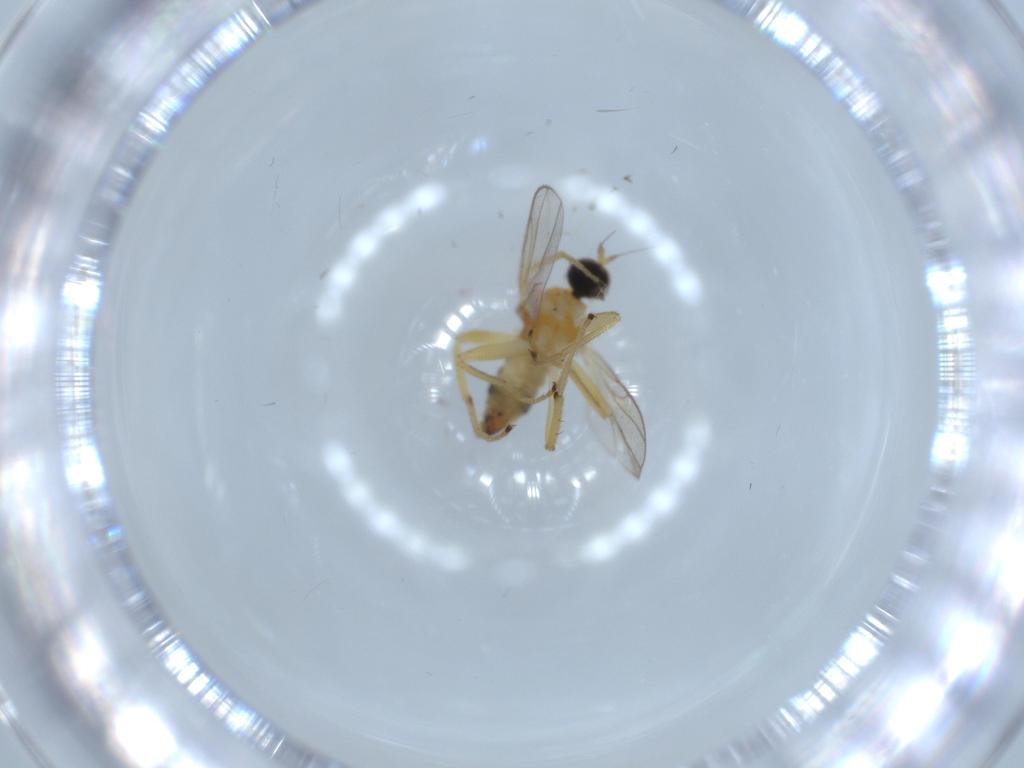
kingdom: Animalia
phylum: Arthropoda
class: Insecta
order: Diptera
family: Hybotidae
